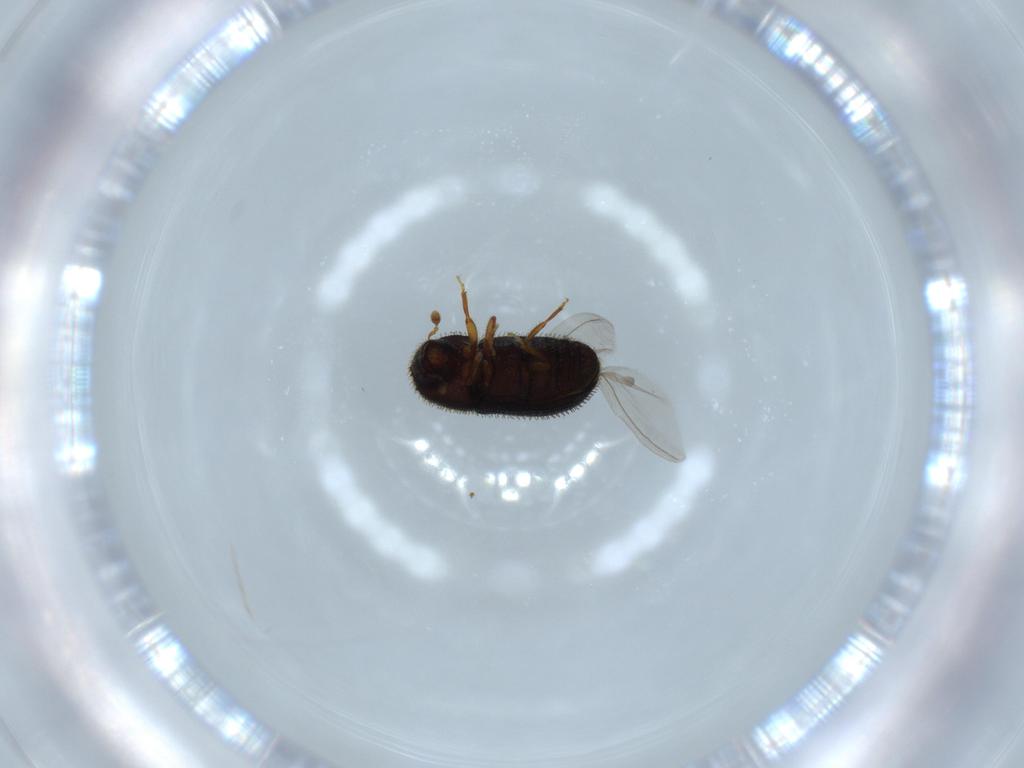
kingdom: Animalia
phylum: Arthropoda
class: Insecta
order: Coleoptera
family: Curculionidae
